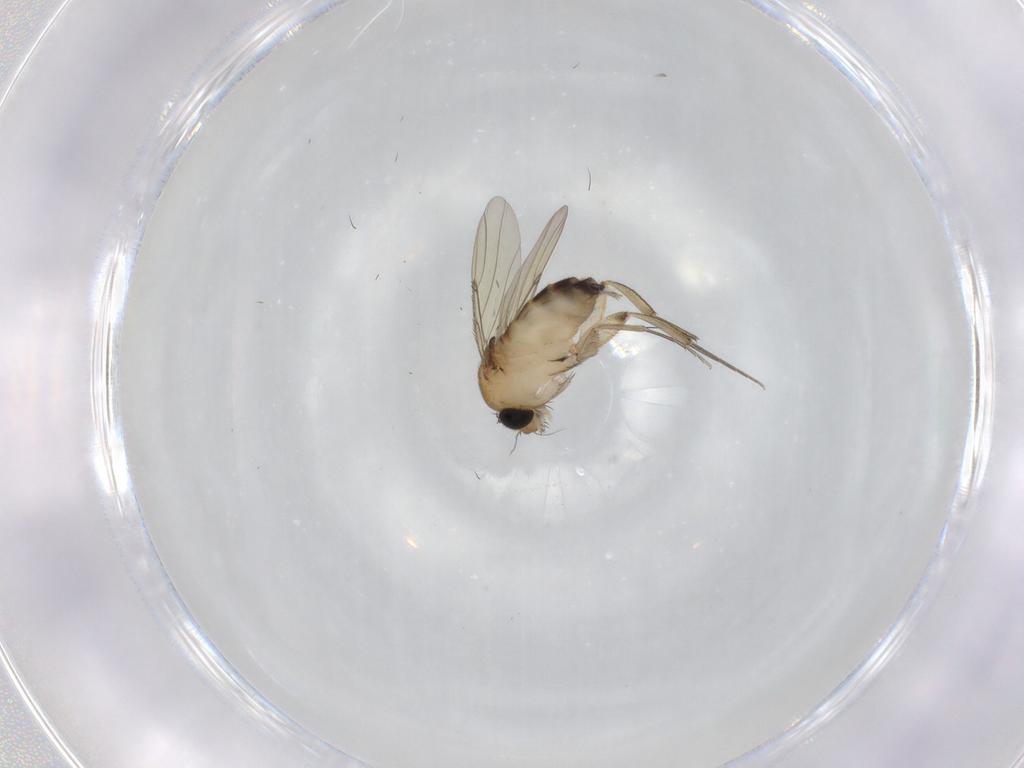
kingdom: Animalia
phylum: Arthropoda
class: Insecta
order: Diptera
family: Phoridae
